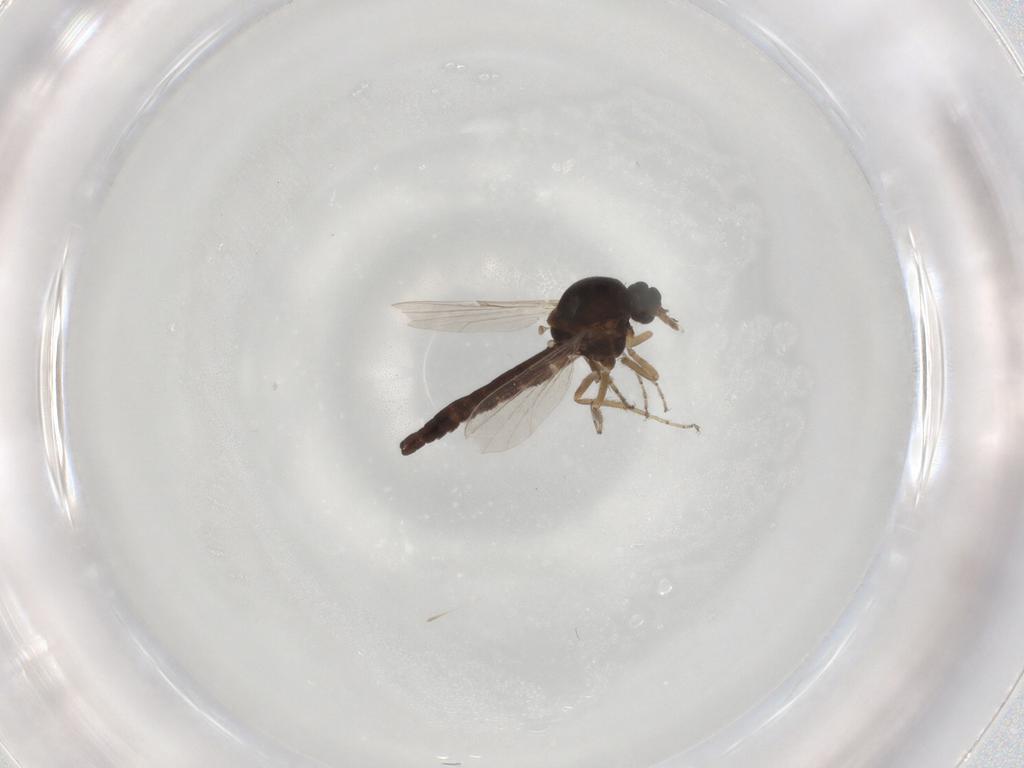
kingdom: Animalia
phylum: Arthropoda
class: Insecta
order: Diptera
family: Ceratopogonidae
